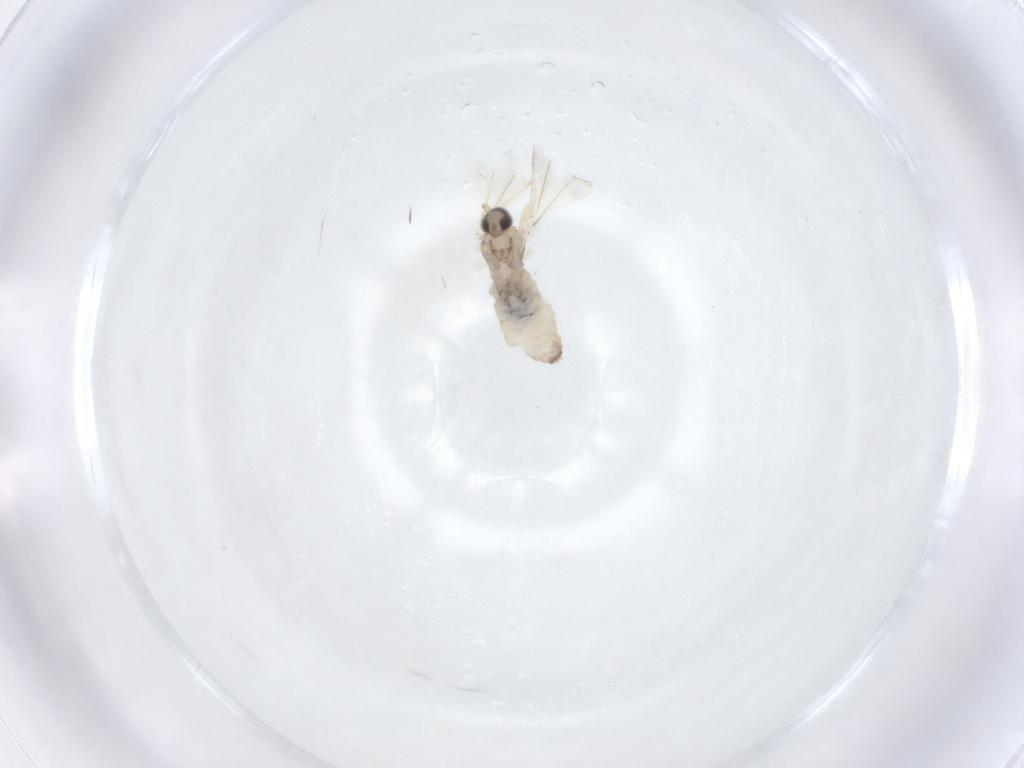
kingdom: Animalia
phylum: Arthropoda
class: Insecta
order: Diptera
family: Cecidomyiidae
